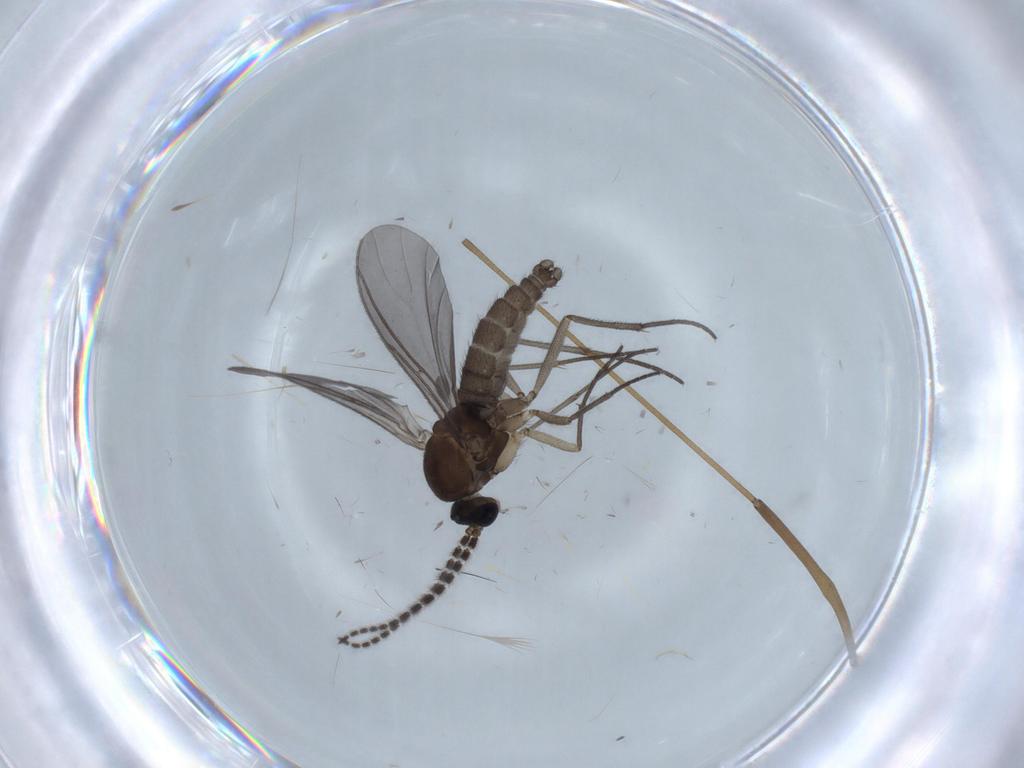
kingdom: Animalia
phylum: Arthropoda
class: Insecta
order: Diptera
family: Sciaridae
